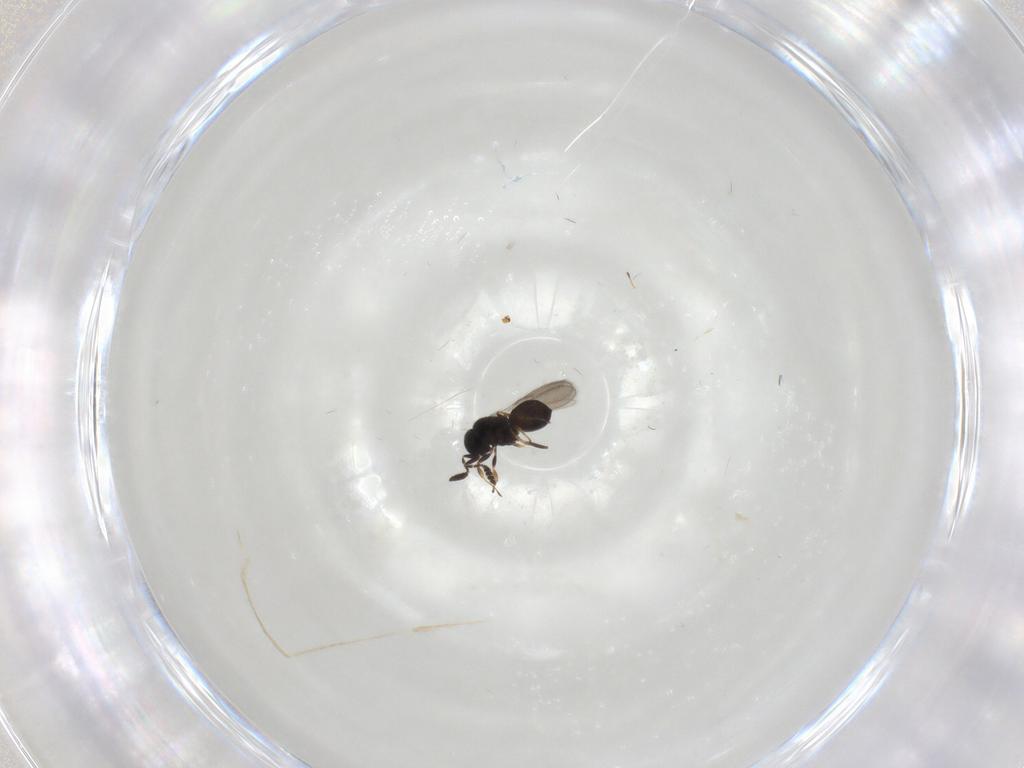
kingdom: Animalia
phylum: Arthropoda
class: Insecta
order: Hymenoptera
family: Scelionidae
